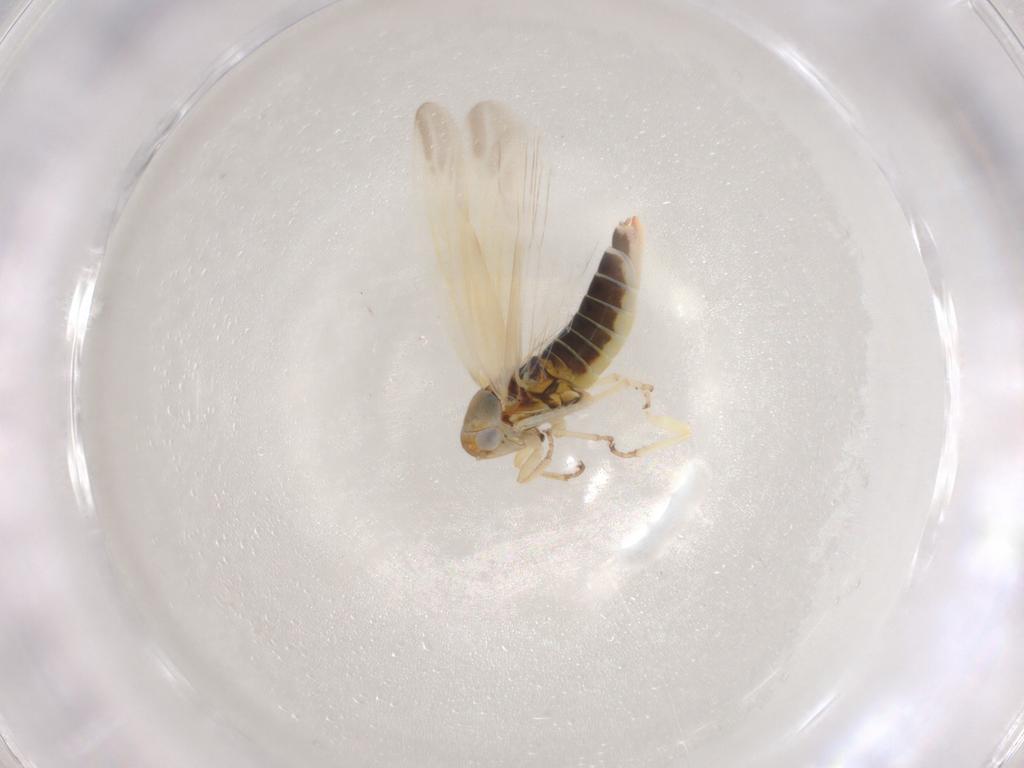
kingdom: Animalia
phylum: Arthropoda
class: Insecta
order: Hemiptera
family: Cicadellidae
